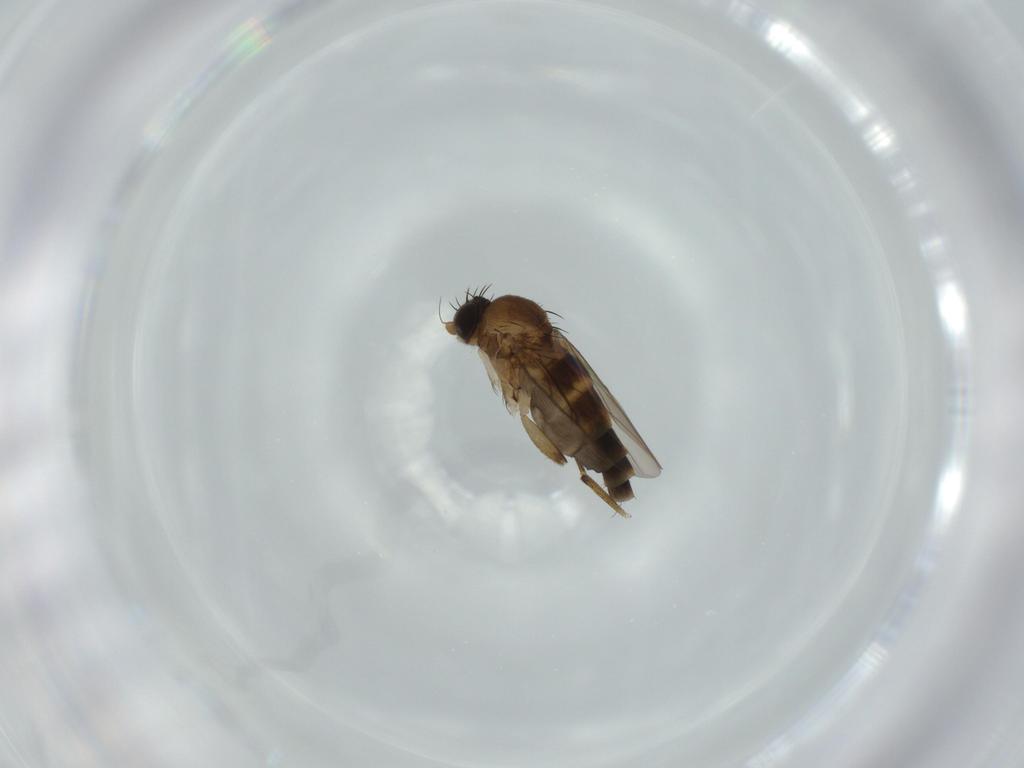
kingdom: Animalia
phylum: Arthropoda
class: Insecta
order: Diptera
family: Phoridae
